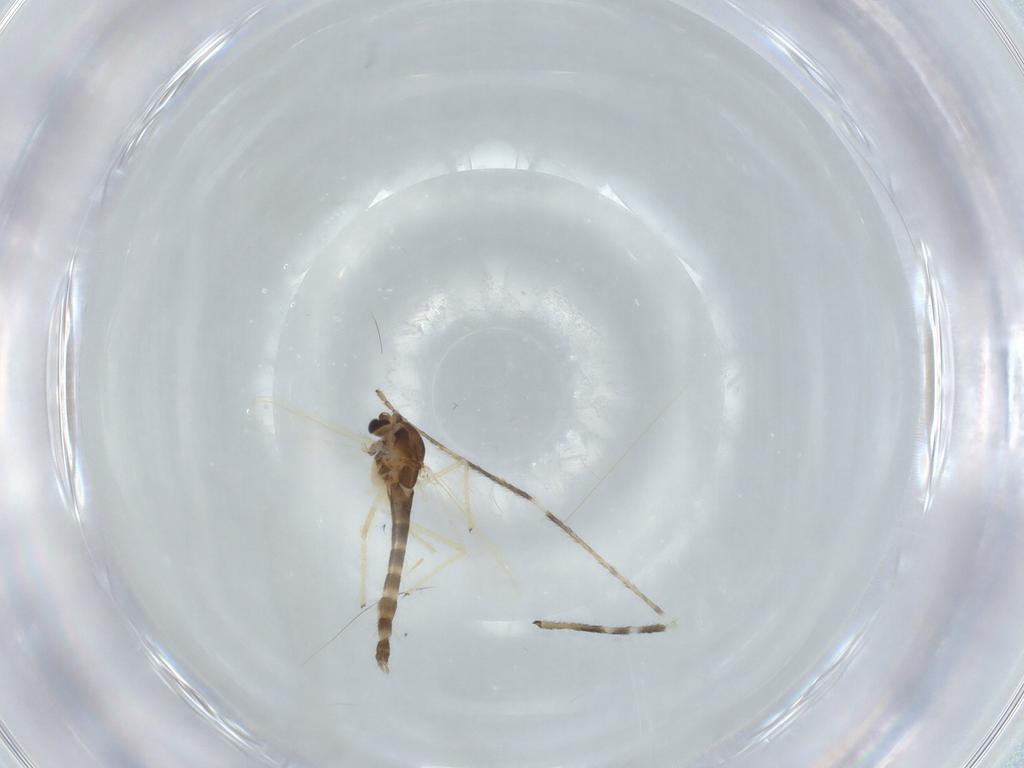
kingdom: Animalia
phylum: Arthropoda
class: Insecta
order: Diptera
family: Chironomidae
